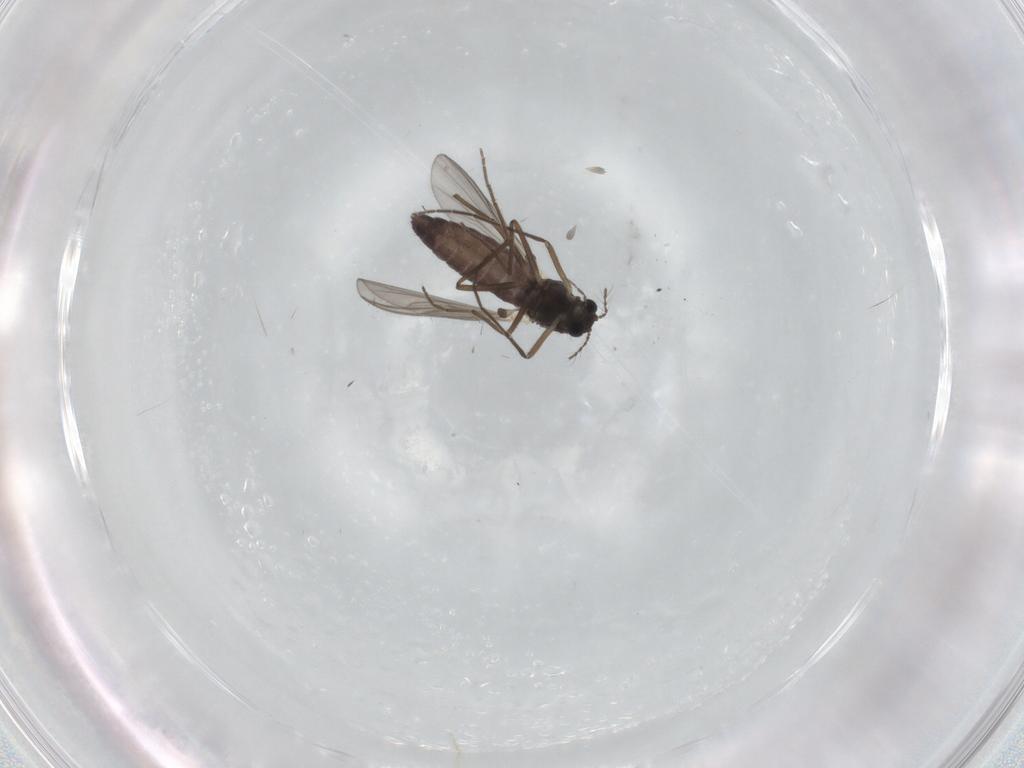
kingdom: Animalia
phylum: Arthropoda
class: Insecta
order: Diptera
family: Chironomidae
